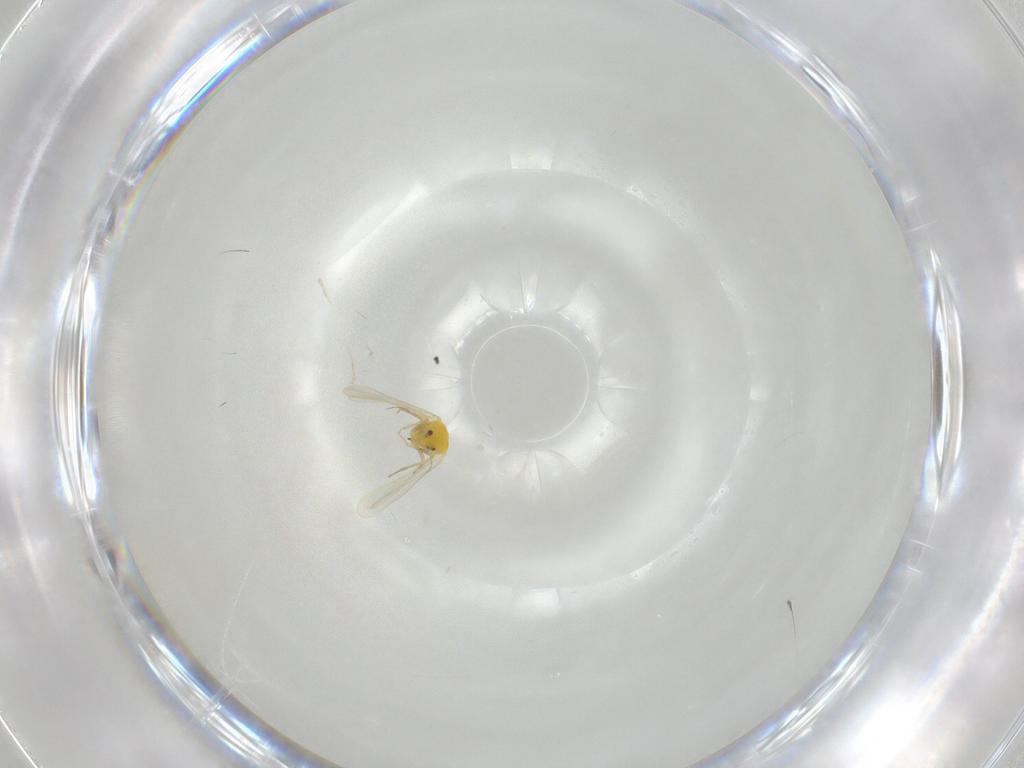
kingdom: Animalia
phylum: Arthropoda
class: Insecta
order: Hemiptera
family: Aleyrodidae
